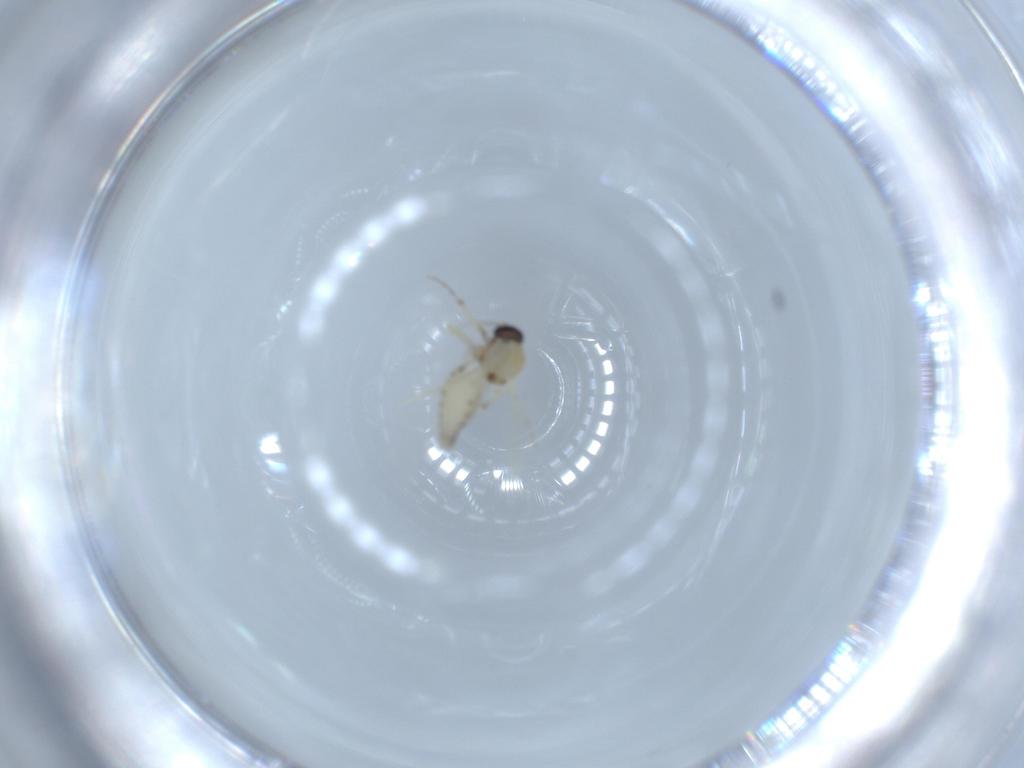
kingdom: Animalia
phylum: Arthropoda
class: Insecta
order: Diptera
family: Ceratopogonidae
